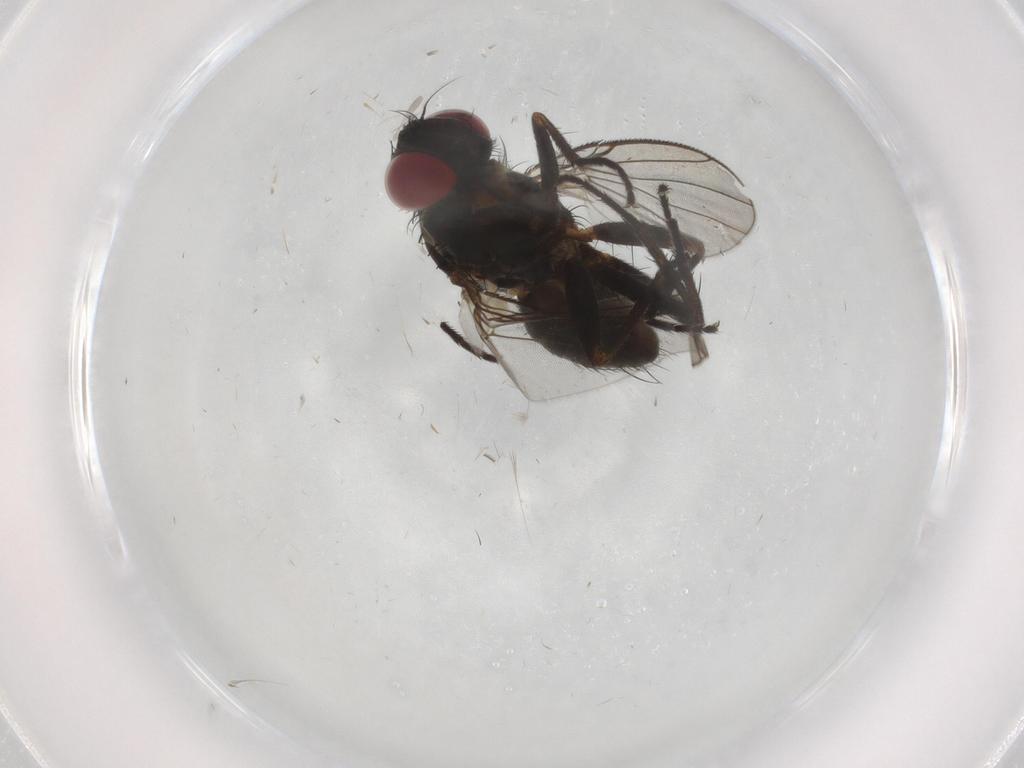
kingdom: Animalia
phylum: Arthropoda
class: Insecta
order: Diptera
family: Muscidae
